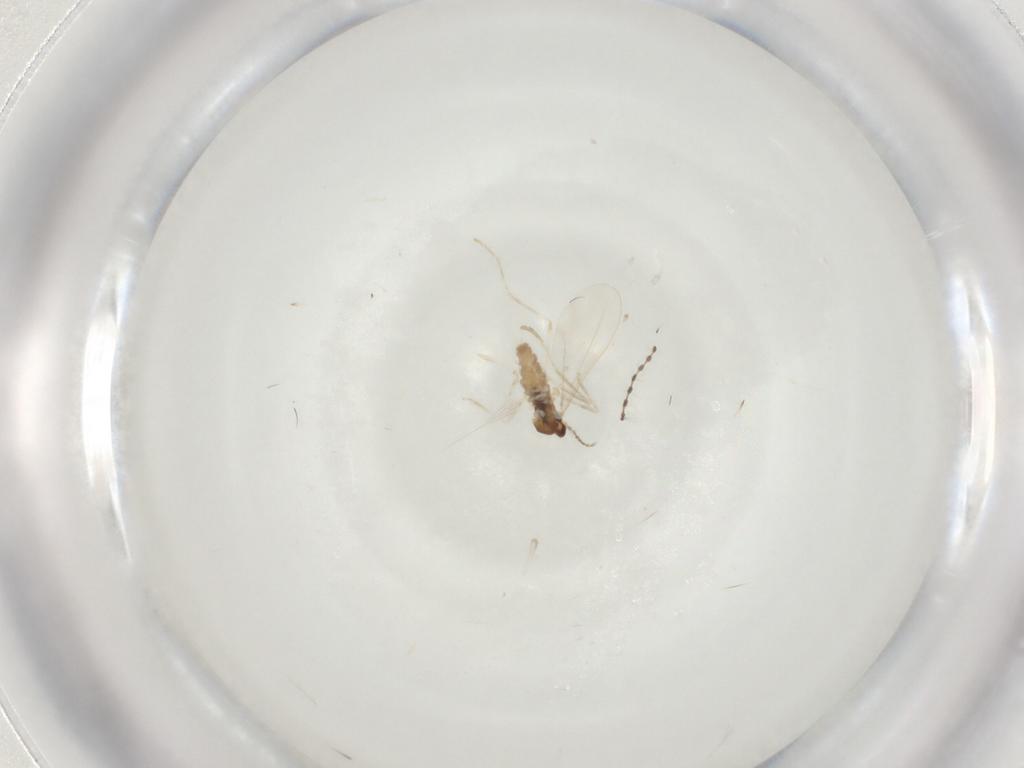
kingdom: Animalia
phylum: Arthropoda
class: Insecta
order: Diptera
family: Cecidomyiidae
